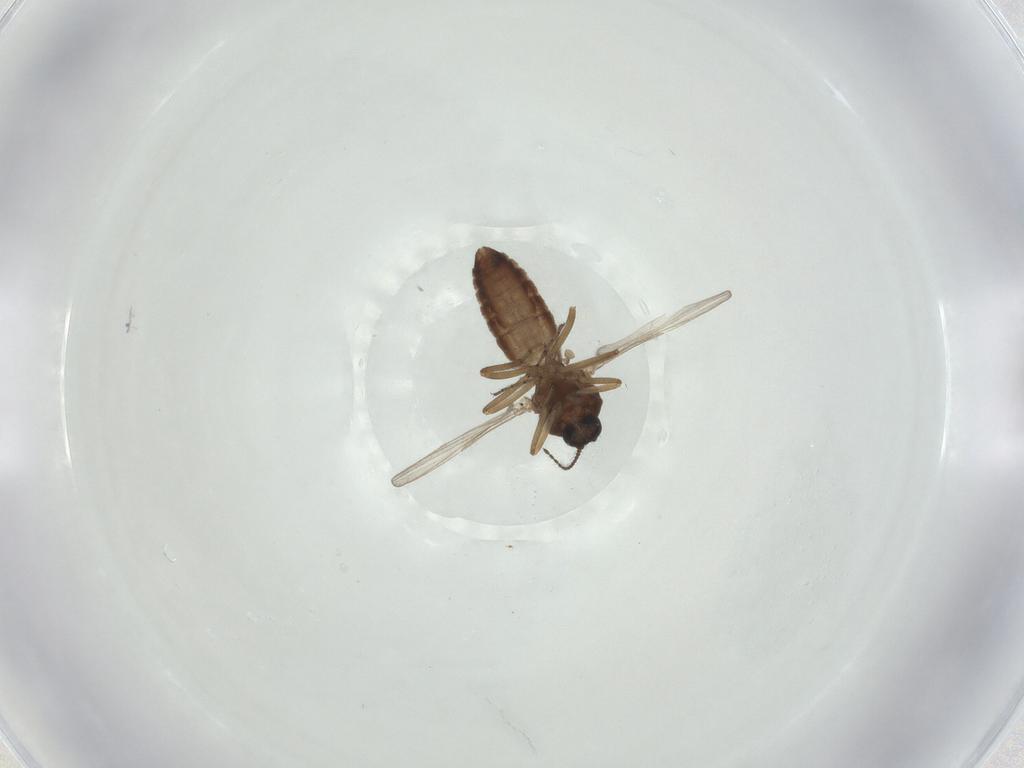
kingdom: Animalia
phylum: Arthropoda
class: Insecta
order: Diptera
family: Ceratopogonidae
